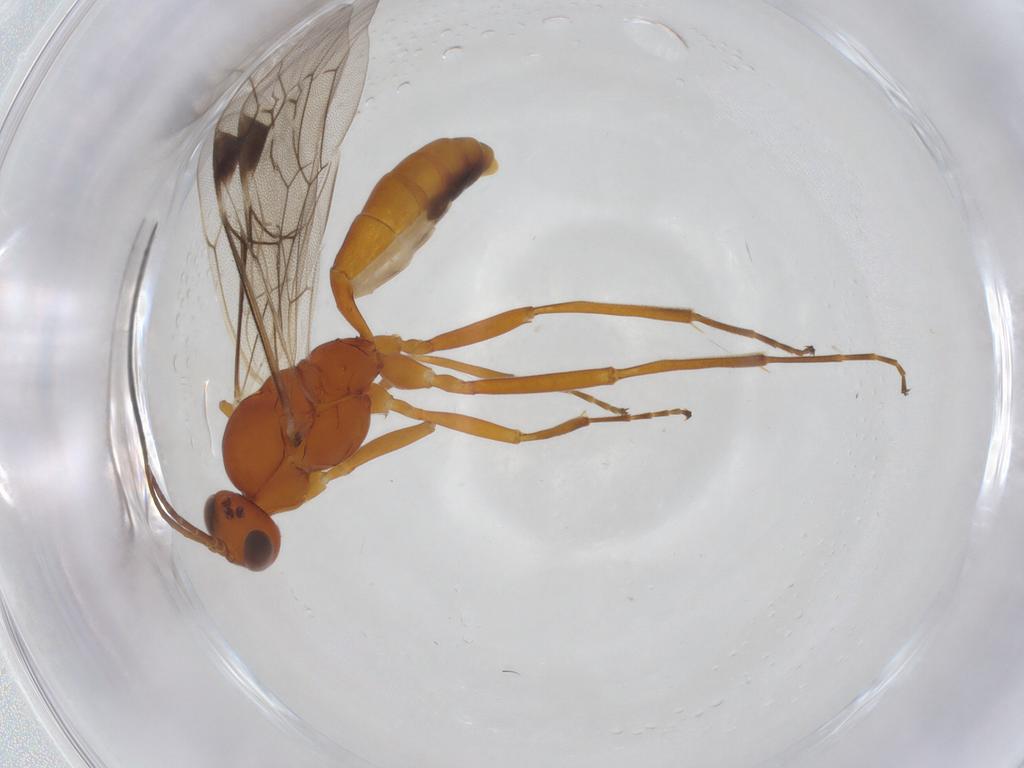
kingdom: Animalia
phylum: Arthropoda
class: Insecta
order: Hymenoptera
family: Ichneumonidae
